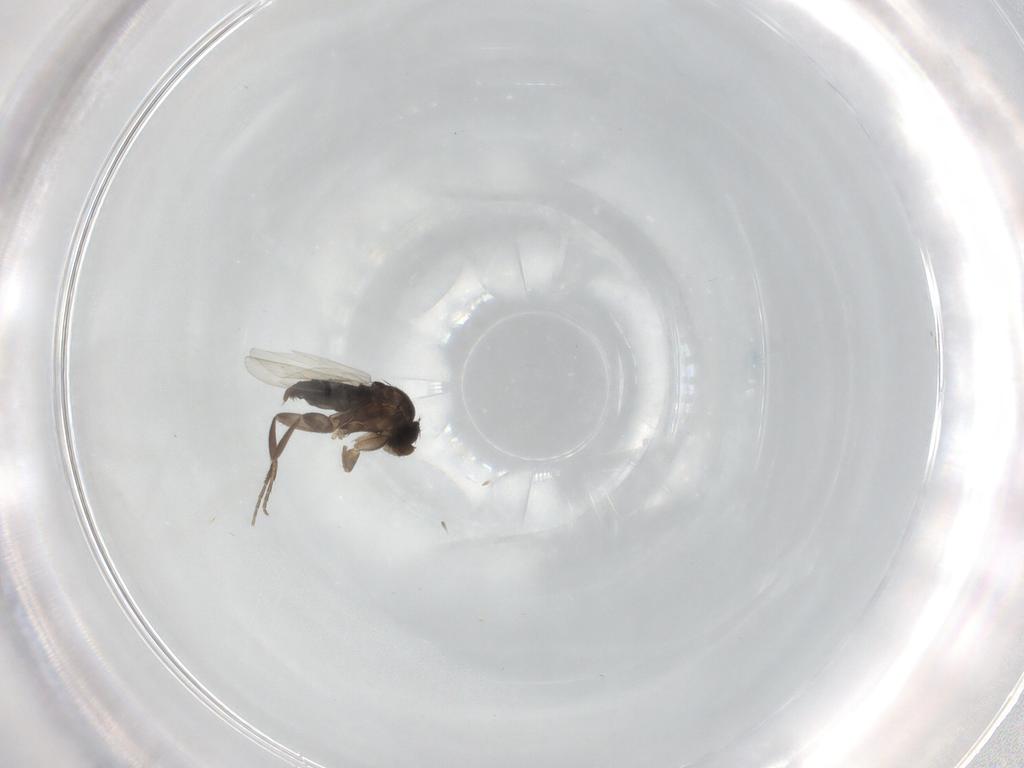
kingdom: Animalia
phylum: Arthropoda
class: Insecta
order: Diptera
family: Phoridae
